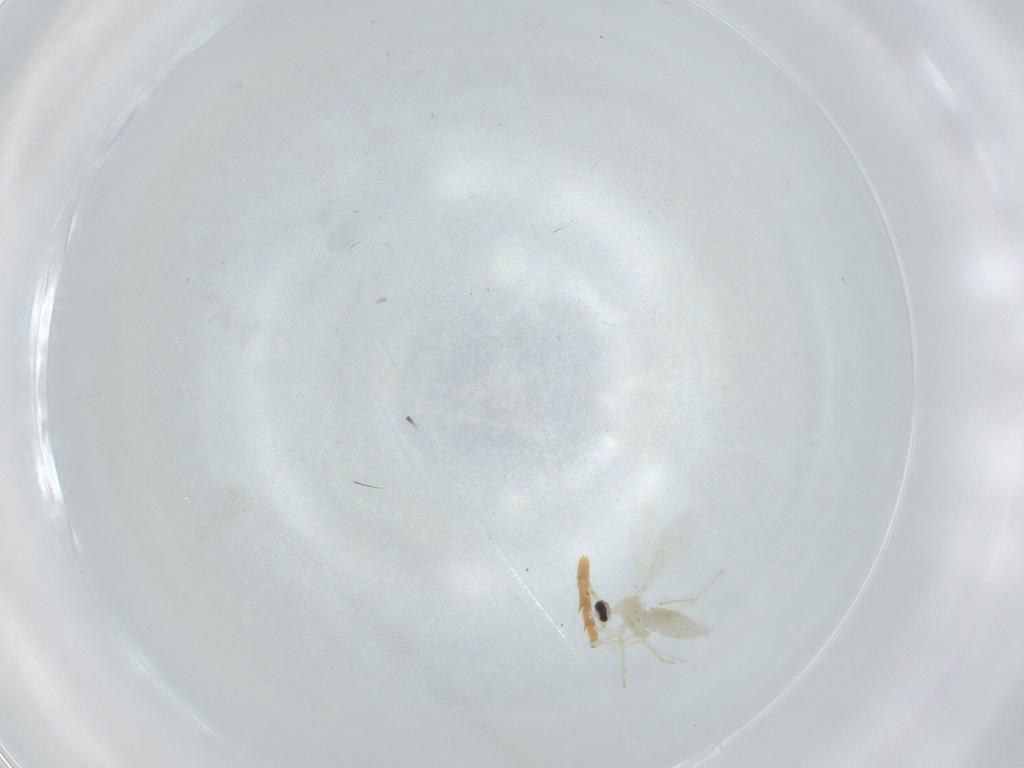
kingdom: Animalia
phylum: Arthropoda
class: Insecta
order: Diptera
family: Cecidomyiidae
